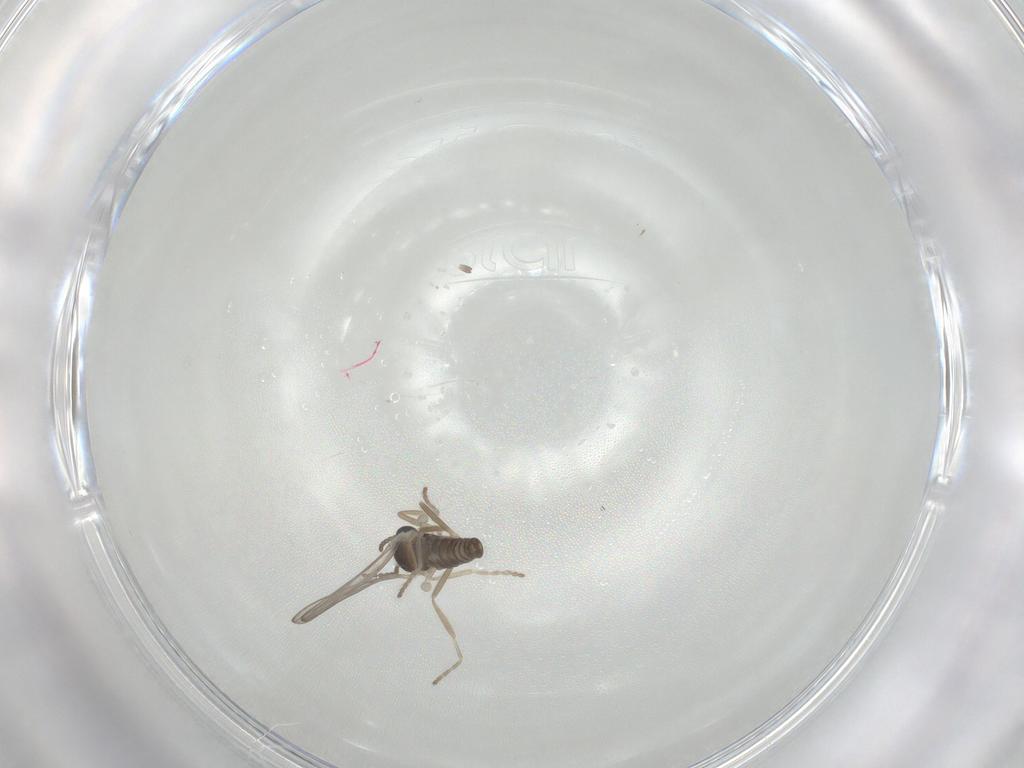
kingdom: Animalia
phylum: Arthropoda
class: Insecta
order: Diptera
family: Cecidomyiidae
